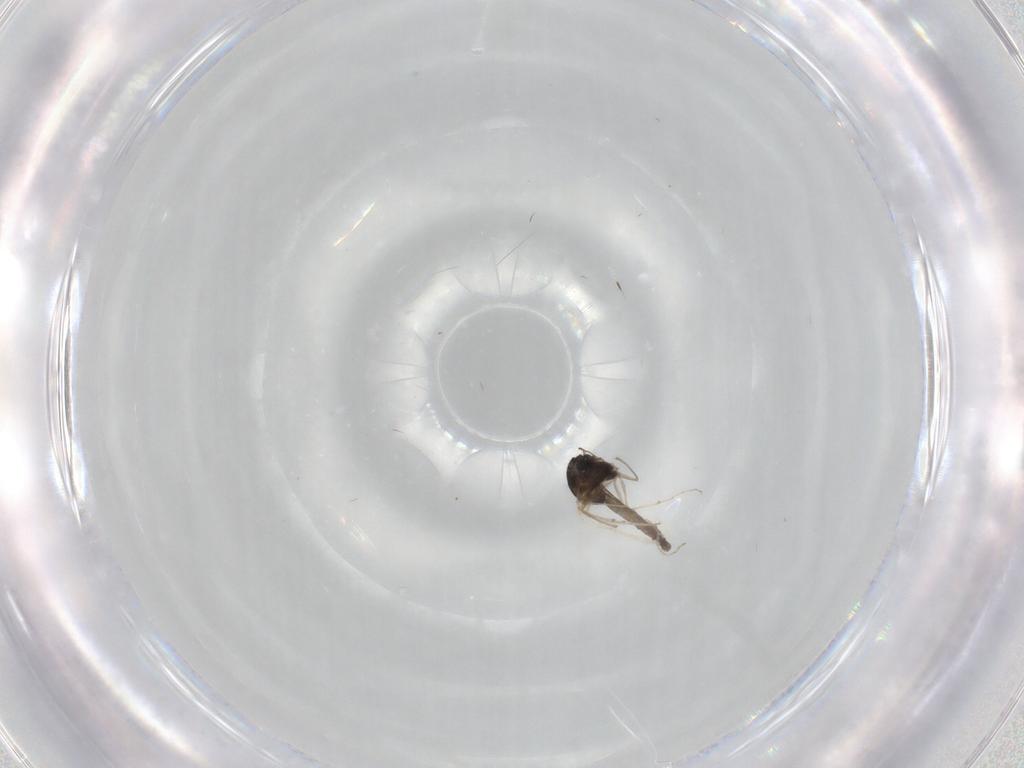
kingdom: Animalia
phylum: Arthropoda
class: Insecta
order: Diptera
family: Chironomidae
